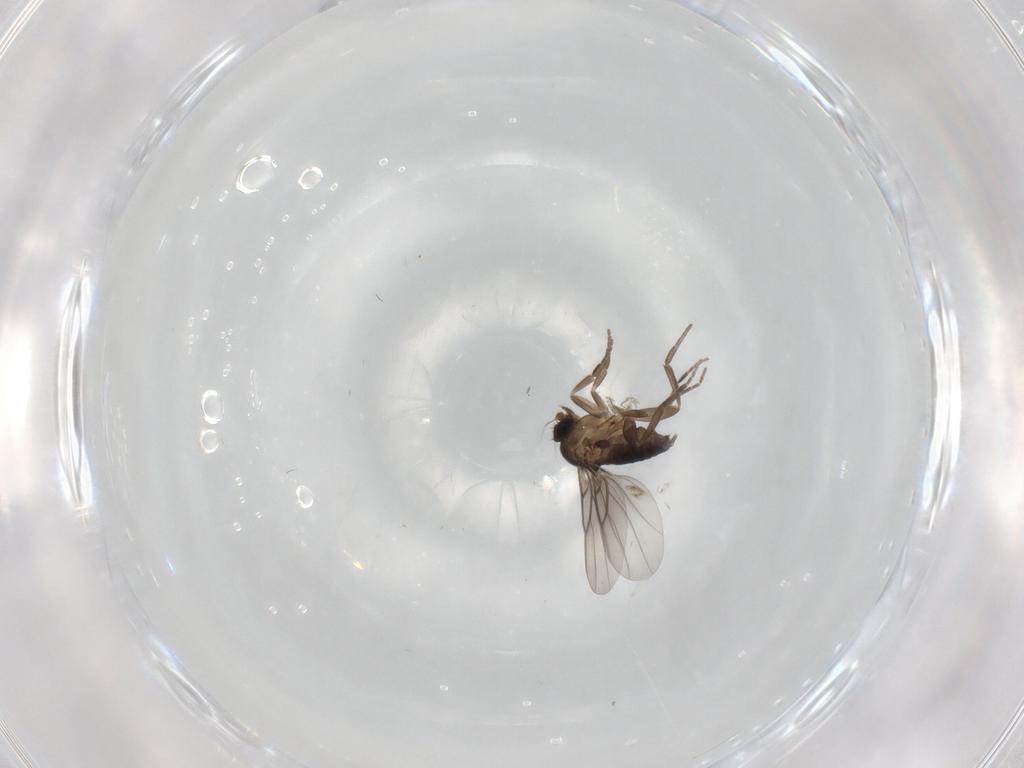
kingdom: Animalia
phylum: Arthropoda
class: Insecta
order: Diptera
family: Phoridae
